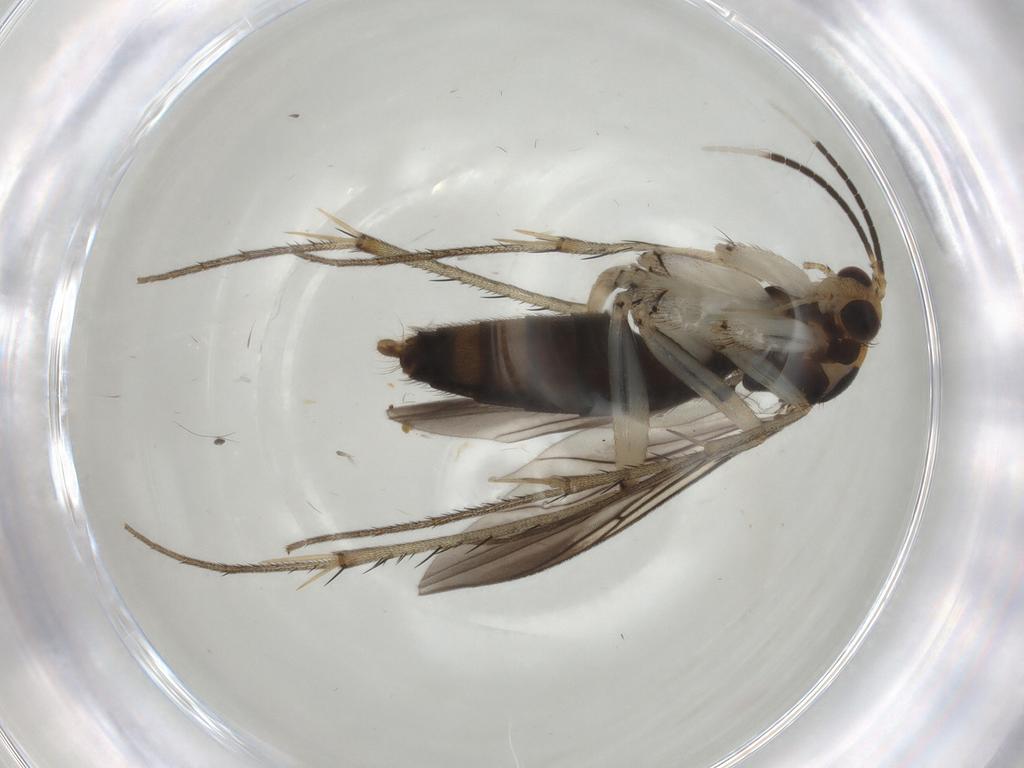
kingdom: Animalia
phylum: Arthropoda
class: Insecta
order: Diptera
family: Mycetophilidae
